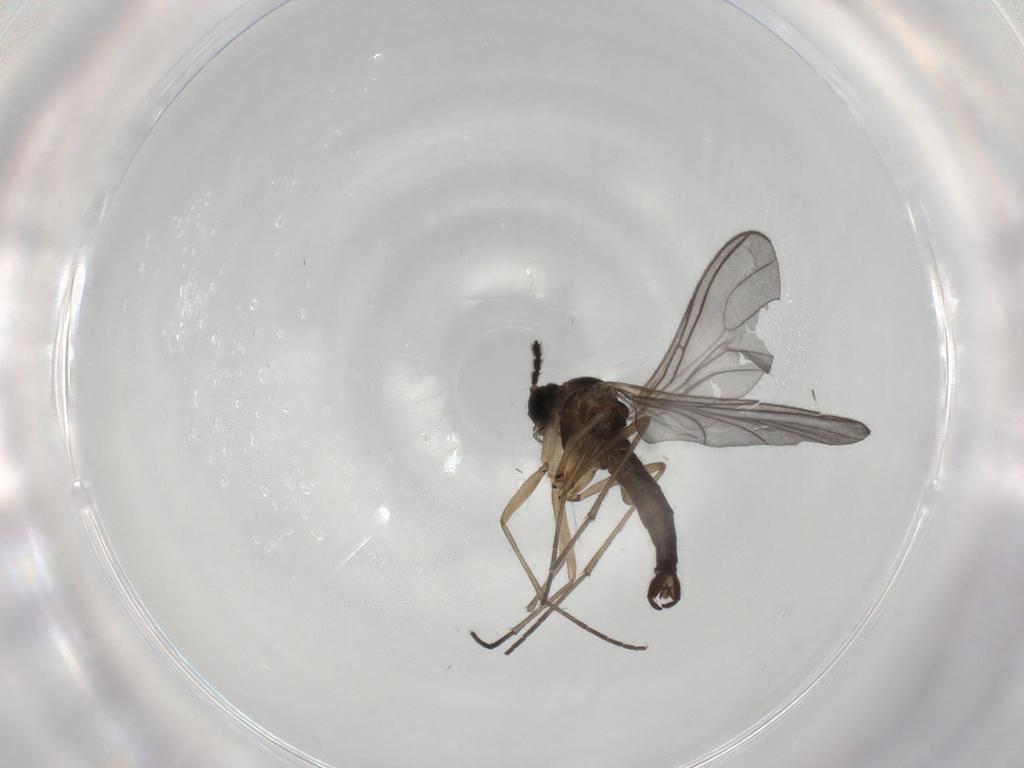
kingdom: Animalia
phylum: Arthropoda
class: Insecta
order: Diptera
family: Sciaridae
